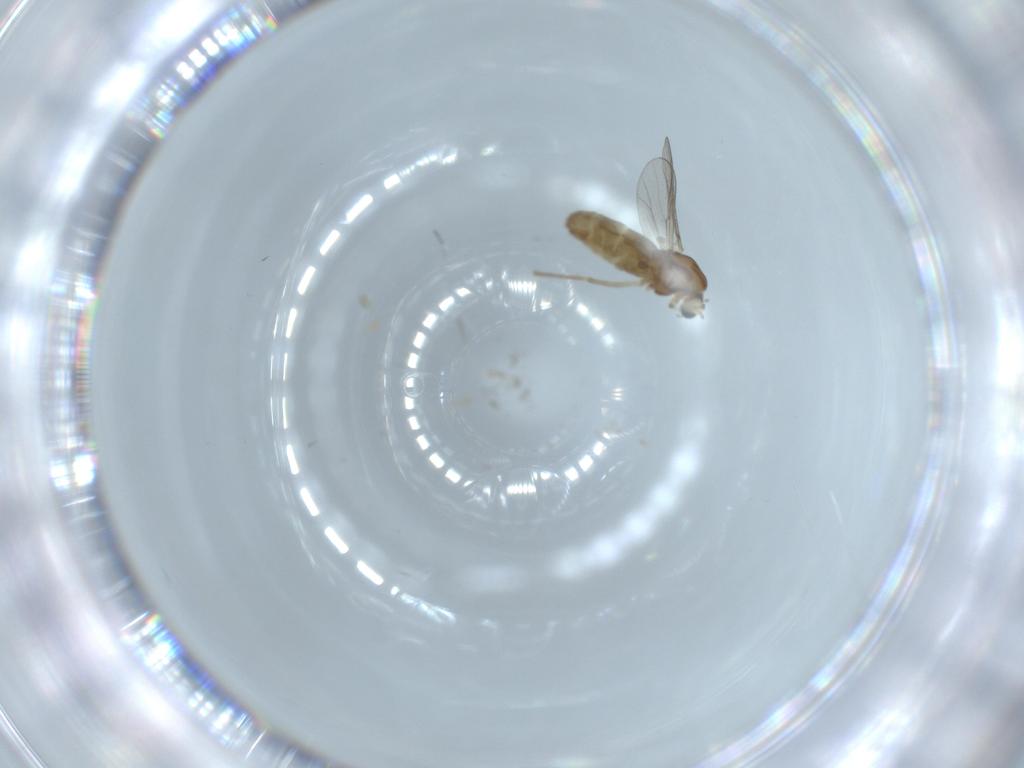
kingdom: Animalia
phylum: Arthropoda
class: Insecta
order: Diptera
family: Chironomidae
